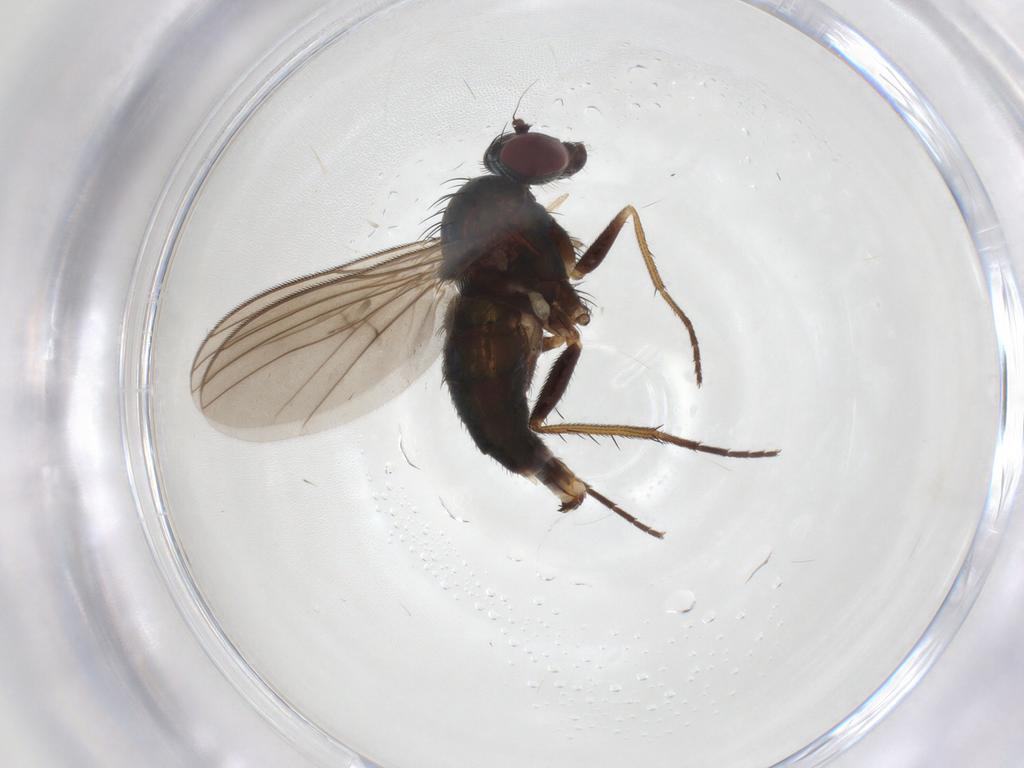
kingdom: Animalia
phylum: Arthropoda
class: Insecta
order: Diptera
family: Dolichopodidae
